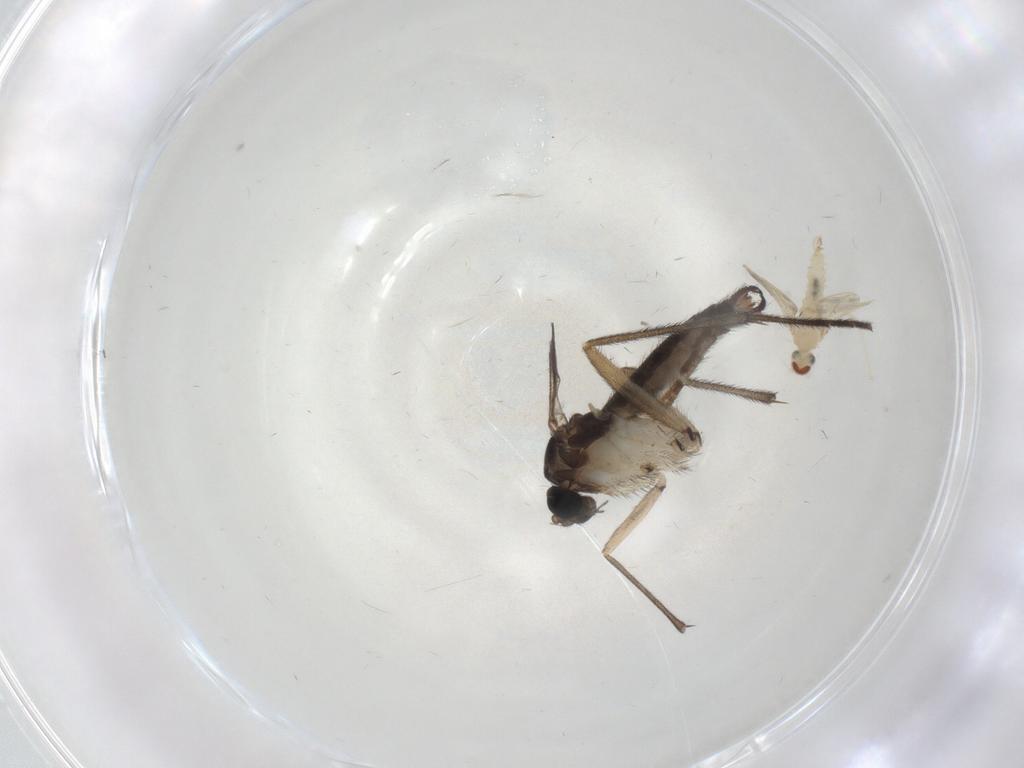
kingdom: Animalia
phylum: Arthropoda
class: Insecta
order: Diptera
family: Sciaridae
